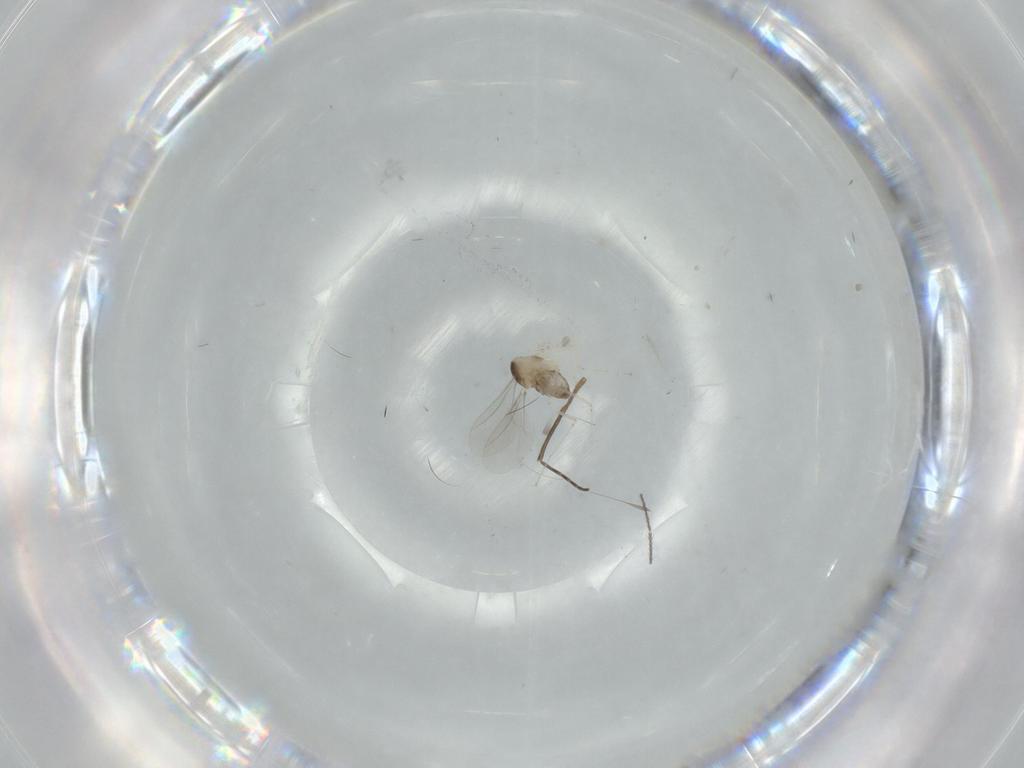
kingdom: Animalia
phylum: Arthropoda
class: Insecta
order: Diptera
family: Cecidomyiidae
